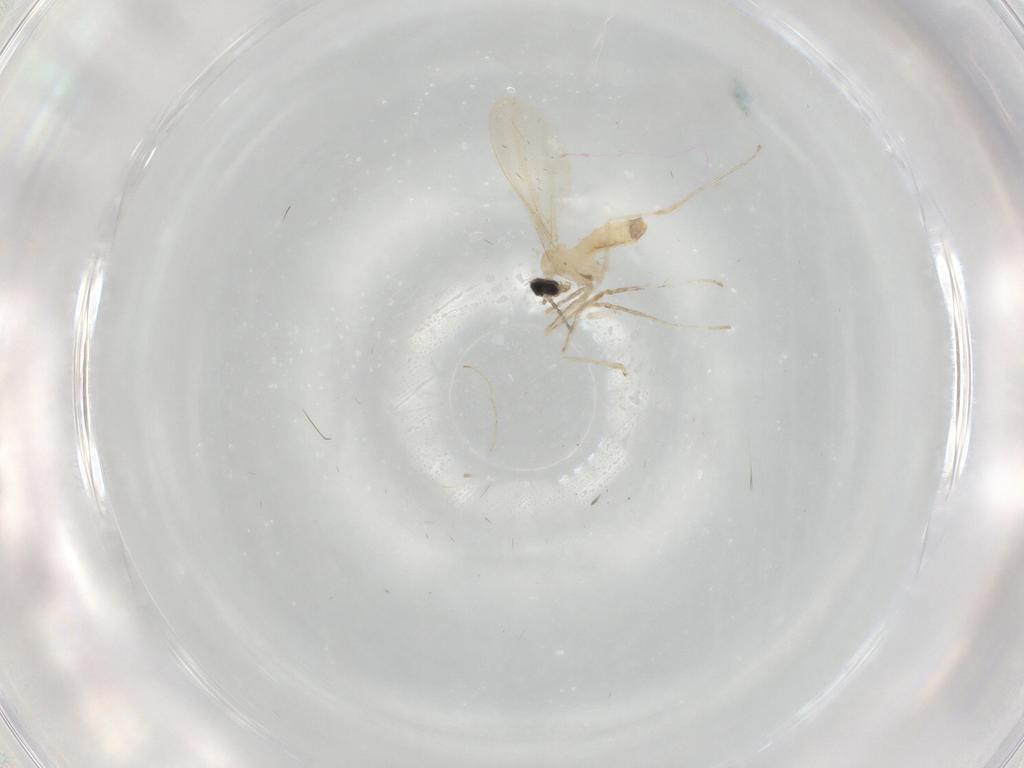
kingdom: Animalia
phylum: Arthropoda
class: Insecta
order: Diptera
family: Cecidomyiidae
